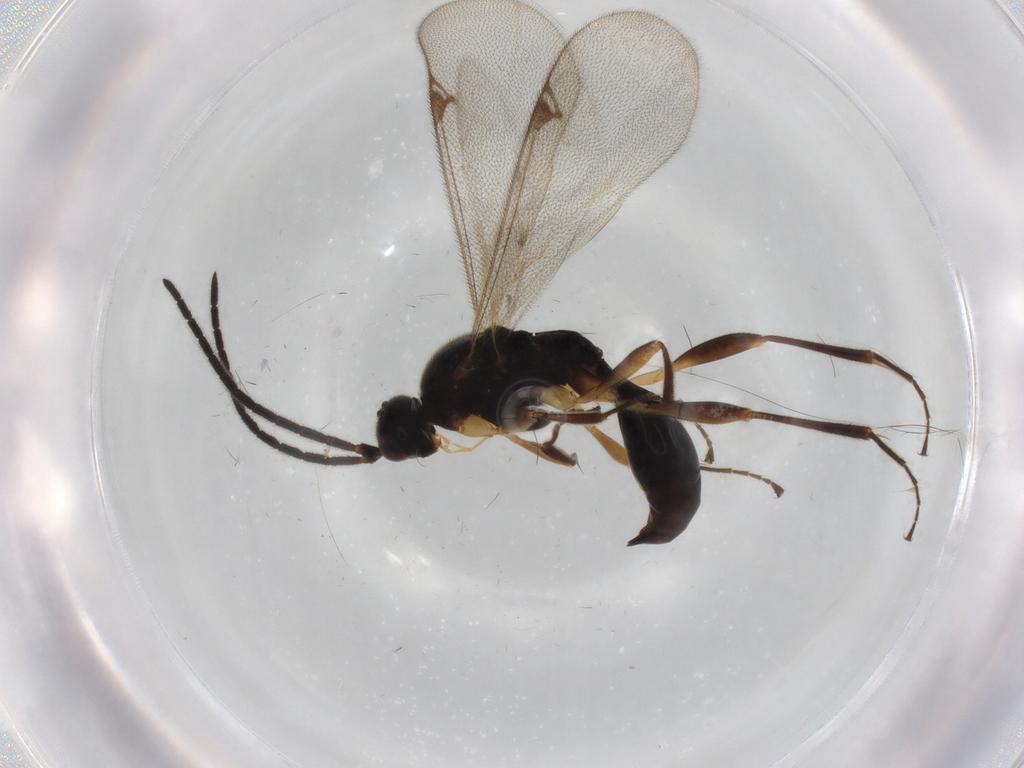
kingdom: Animalia
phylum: Arthropoda
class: Insecta
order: Hymenoptera
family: Proctotrupidae
